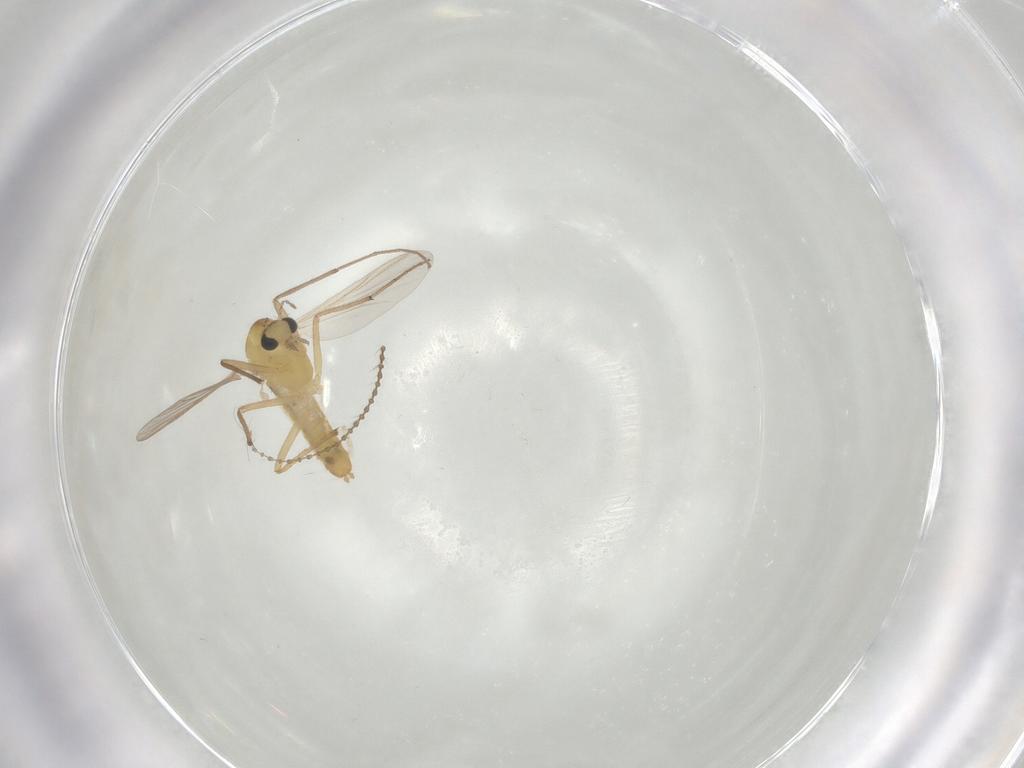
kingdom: Animalia
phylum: Arthropoda
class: Insecta
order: Diptera
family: Chironomidae
